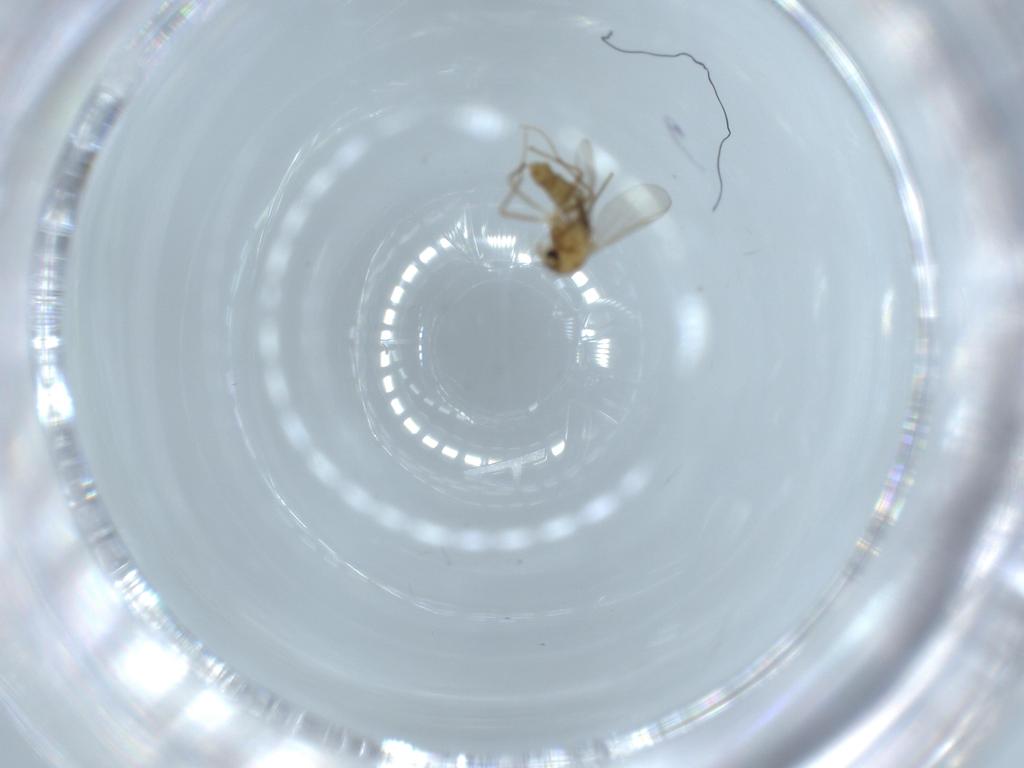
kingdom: Animalia
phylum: Arthropoda
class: Insecta
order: Diptera
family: Chironomidae
